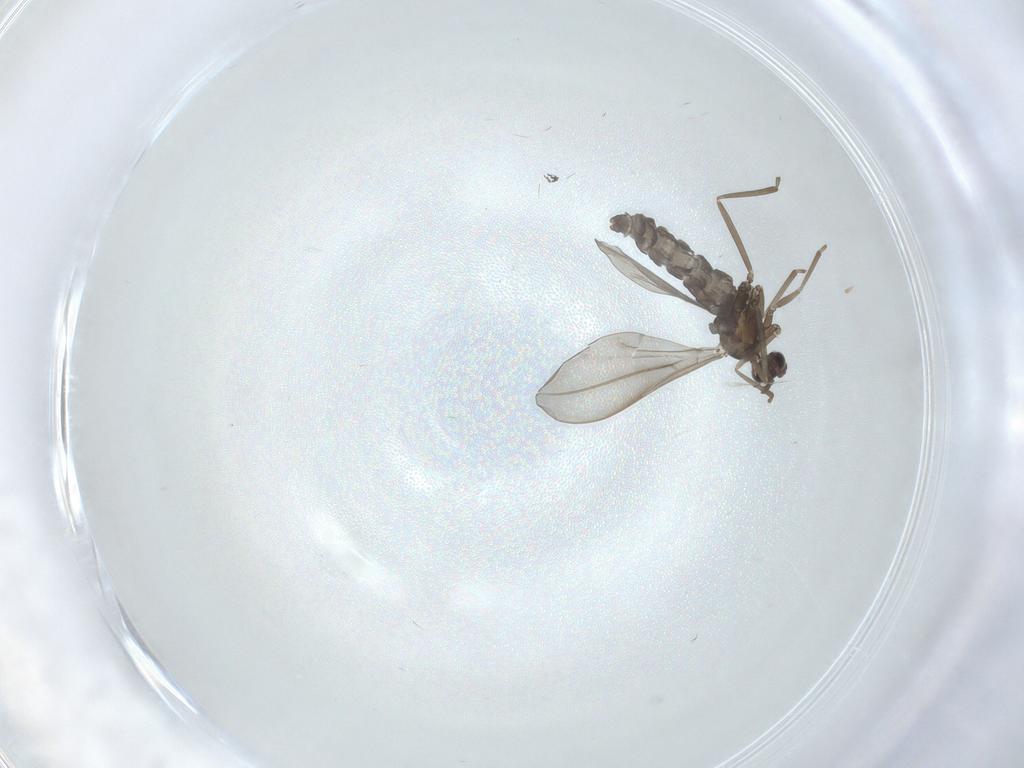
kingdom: Animalia
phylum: Arthropoda
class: Insecta
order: Diptera
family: Cecidomyiidae
